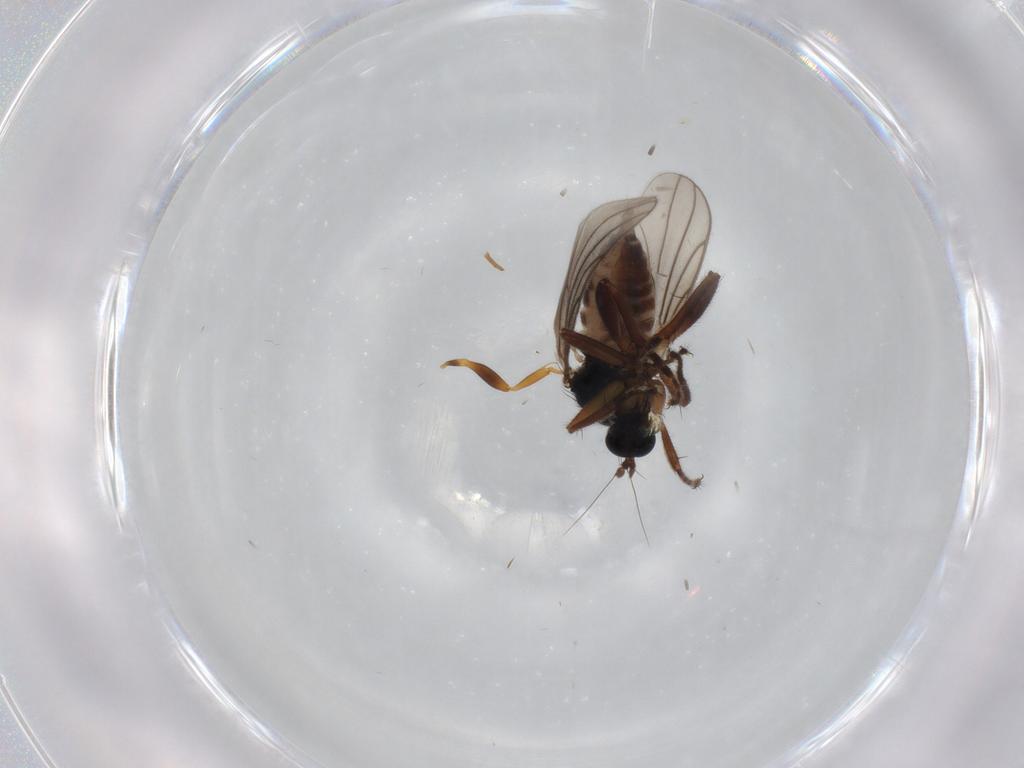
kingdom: Animalia
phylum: Arthropoda
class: Insecta
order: Diptera
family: Hybotidae
